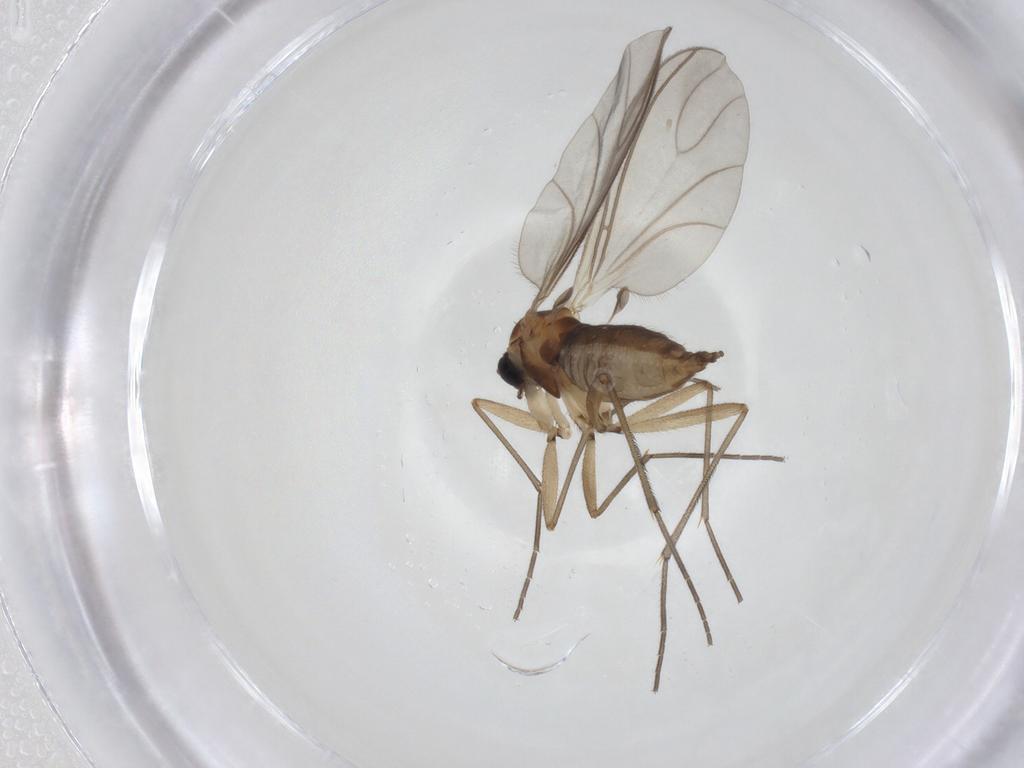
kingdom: Animalia
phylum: Arthropoda
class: Insecta
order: Diptera
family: Sciaridae
